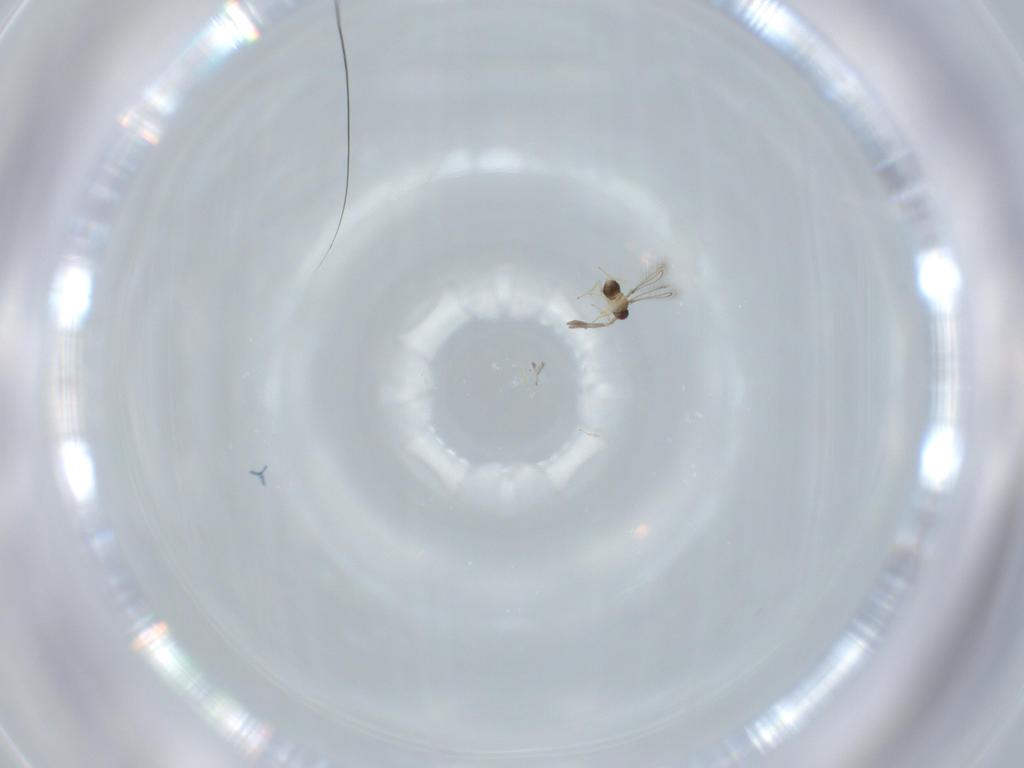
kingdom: Animalia
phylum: Arthropoda
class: Insecta
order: Hymenoptera
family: Trichogrammatidae
